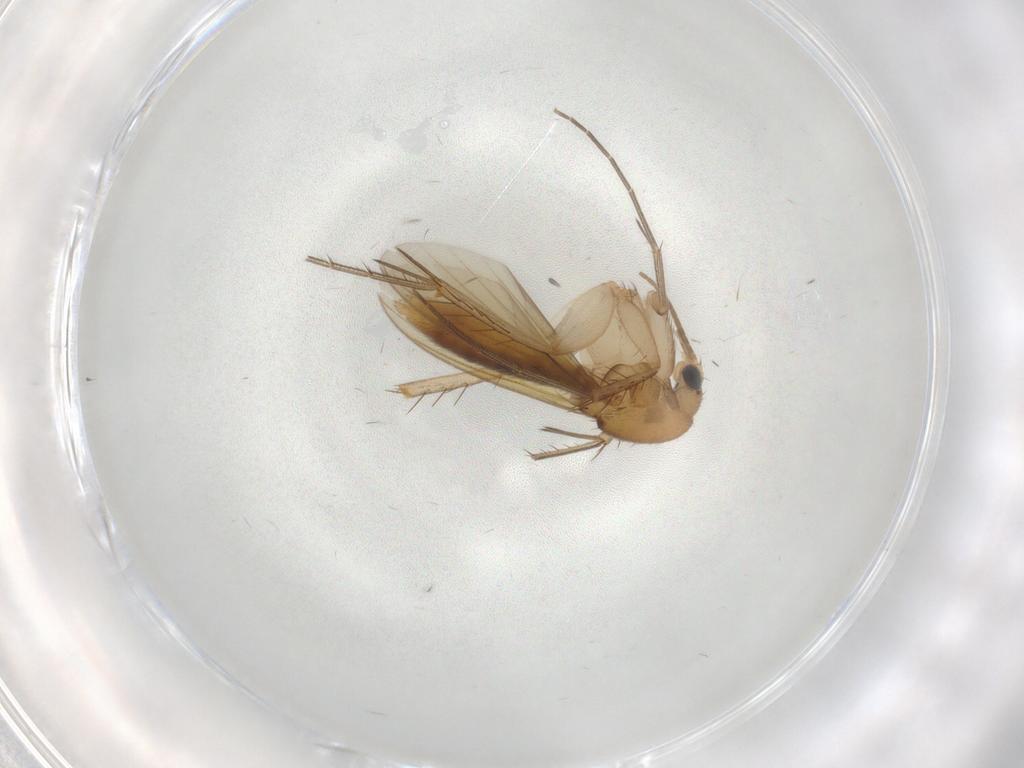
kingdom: Animalia
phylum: Arthropoda
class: Insecta
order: Diptera
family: Mycetophilidae
